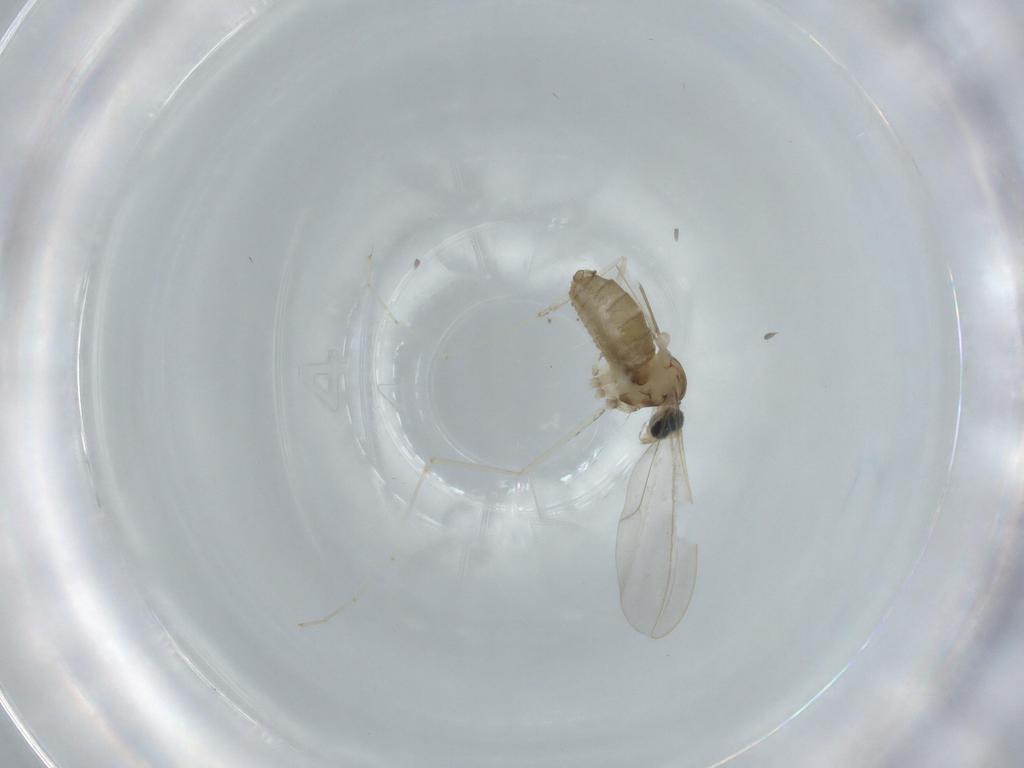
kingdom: Animalia
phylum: Arthropoda
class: Insecta
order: Diptera
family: Cecidomyiidae
